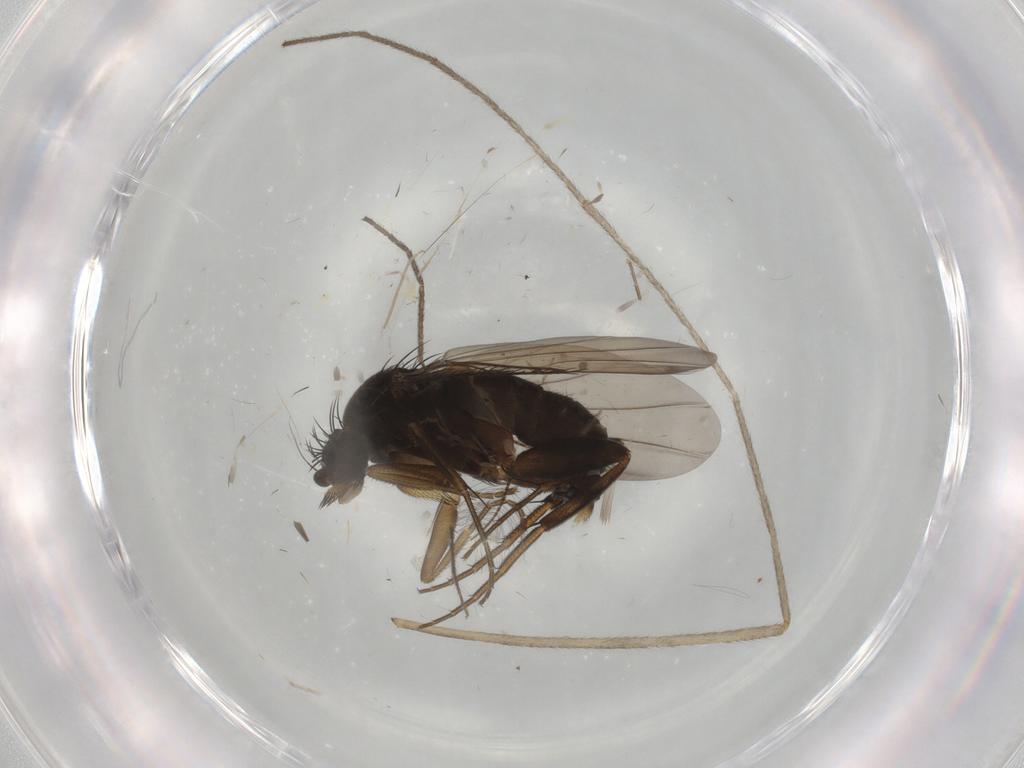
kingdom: Animalia
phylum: Arthropoda
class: Insecta
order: Diptera
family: Phoridae
